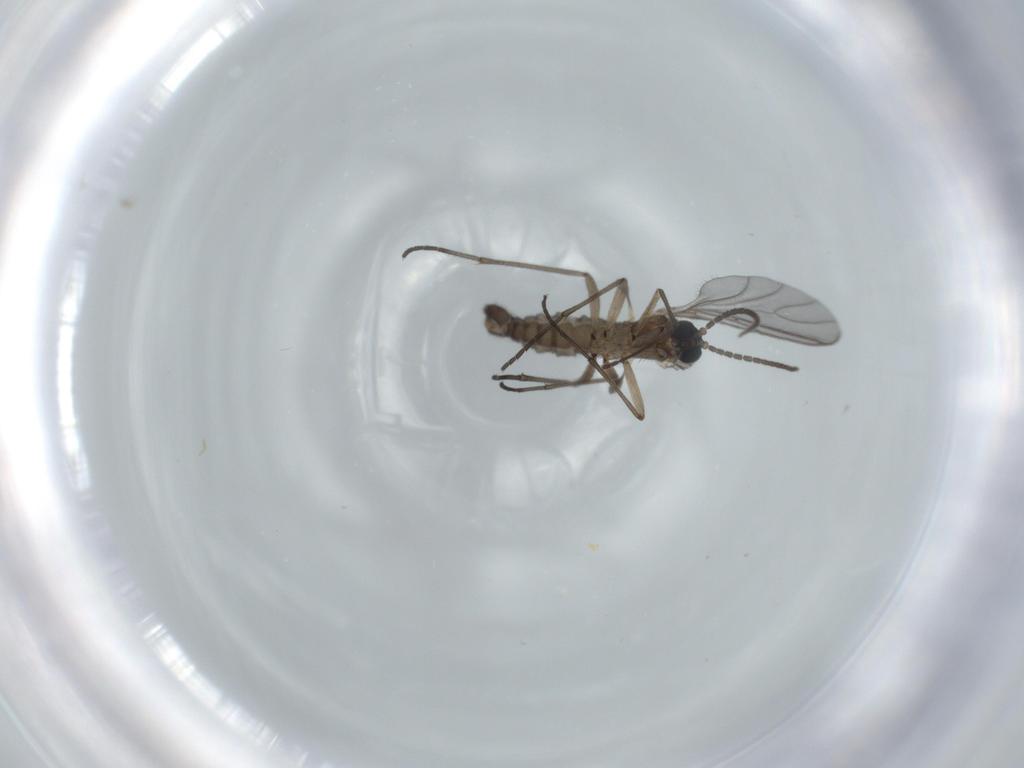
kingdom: Animalia
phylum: Arthropoda
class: Insecta
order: Diptera
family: Sciaridae
